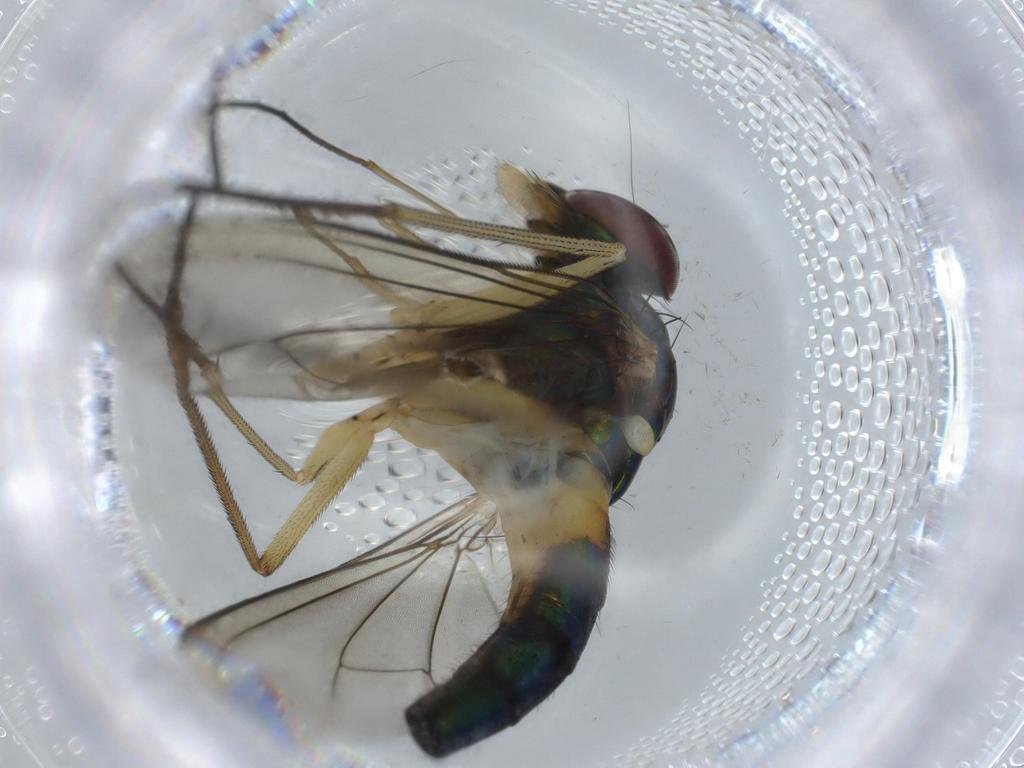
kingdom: Animalia
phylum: Arthropoda
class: Insecta
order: Diptera
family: Dolichopodidae
